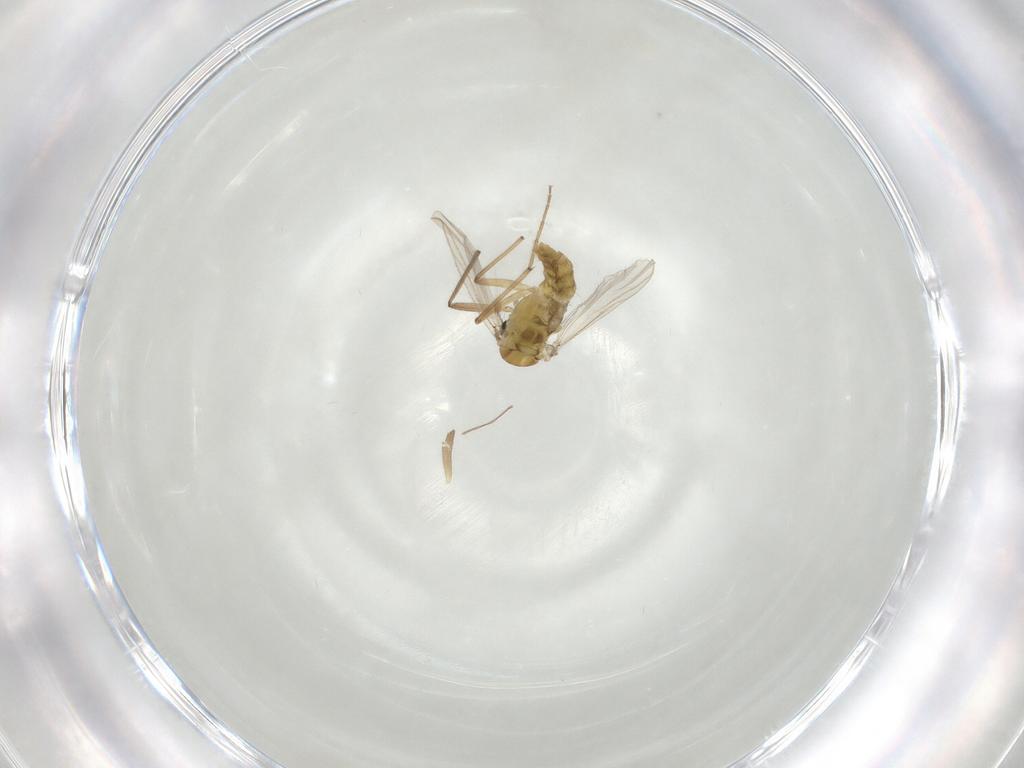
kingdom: Animalia
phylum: Arthropoda
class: Insecta
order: Diptera
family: Chironomidae
